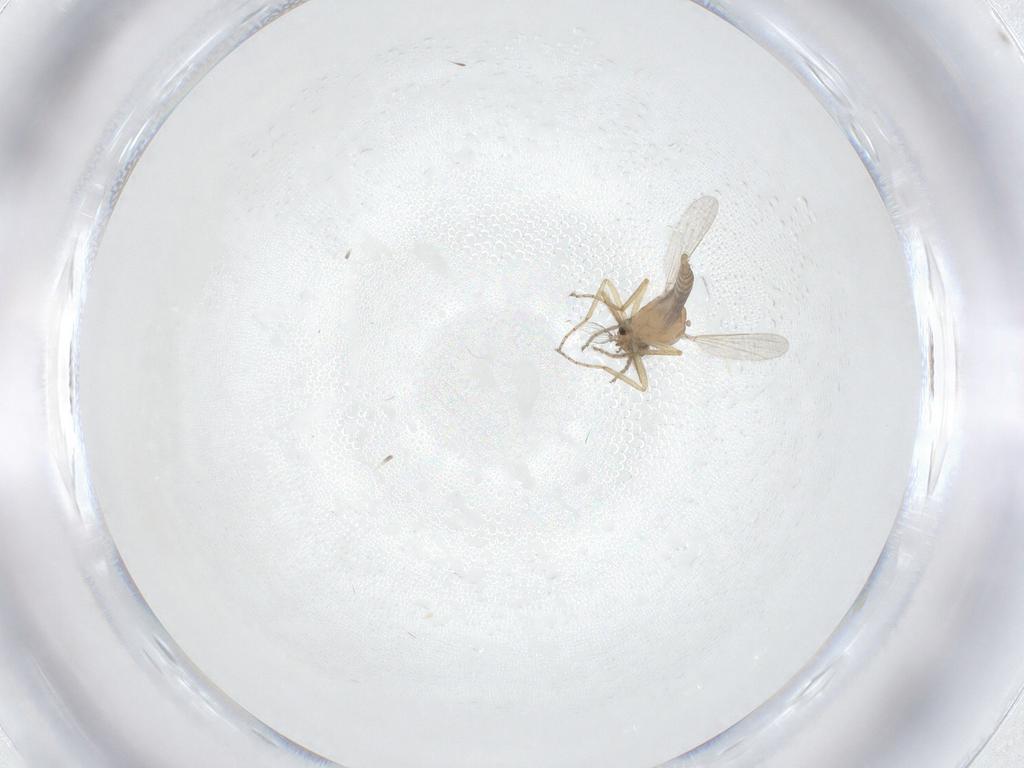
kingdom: Animalia
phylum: Arthropoda
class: Insecta
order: Diptera
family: Ceratopogonidae
